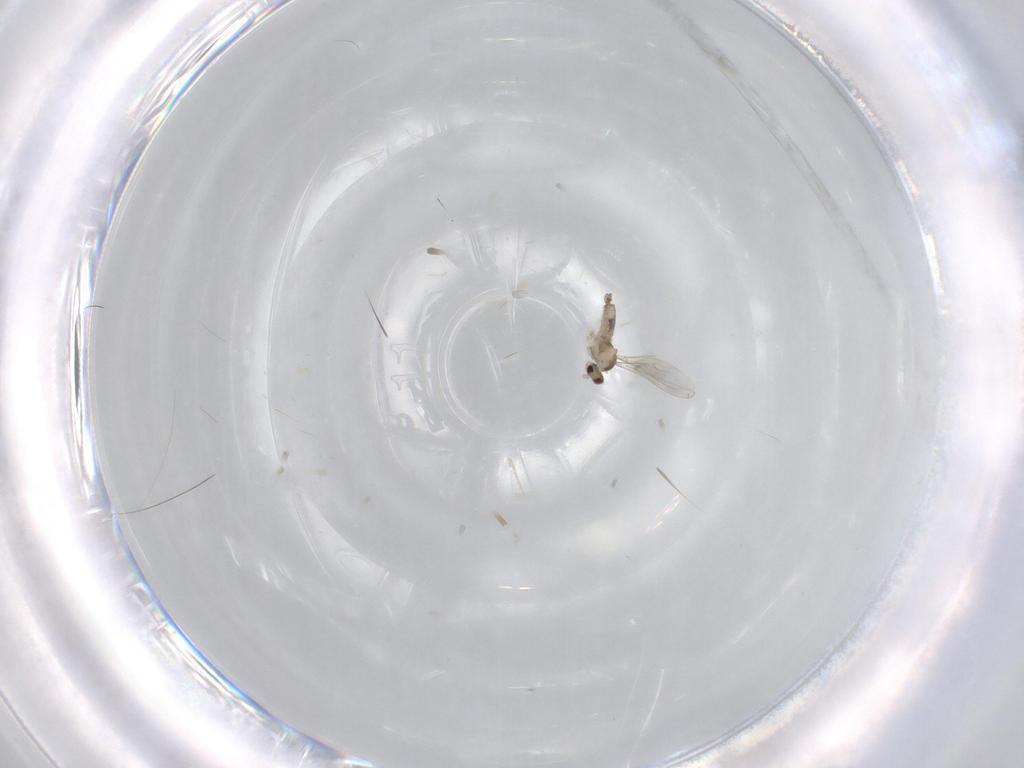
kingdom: Animalia
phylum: Arthropoda
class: Insecta
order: Diptera
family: Cecidomyiidae
